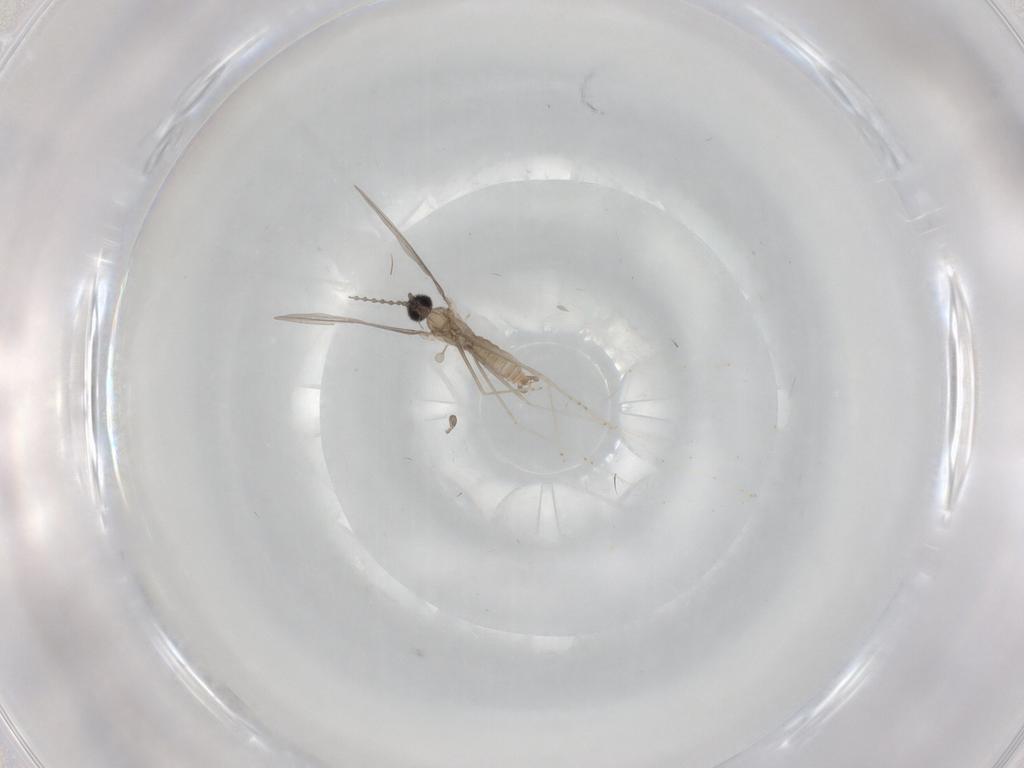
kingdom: Animalia
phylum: Arthropoda
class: Insecta
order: Diptera
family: Cecidomyiidae
